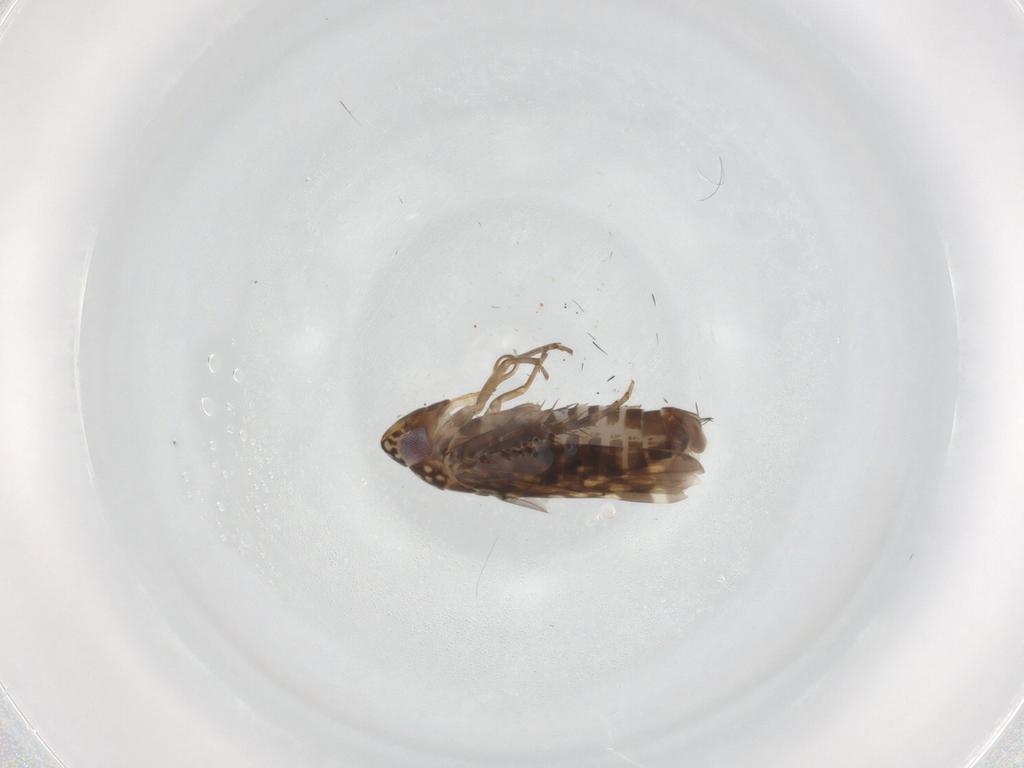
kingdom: Animalia
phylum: Arthropoda
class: Insecta
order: Hemiptera
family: Cicadellidae
